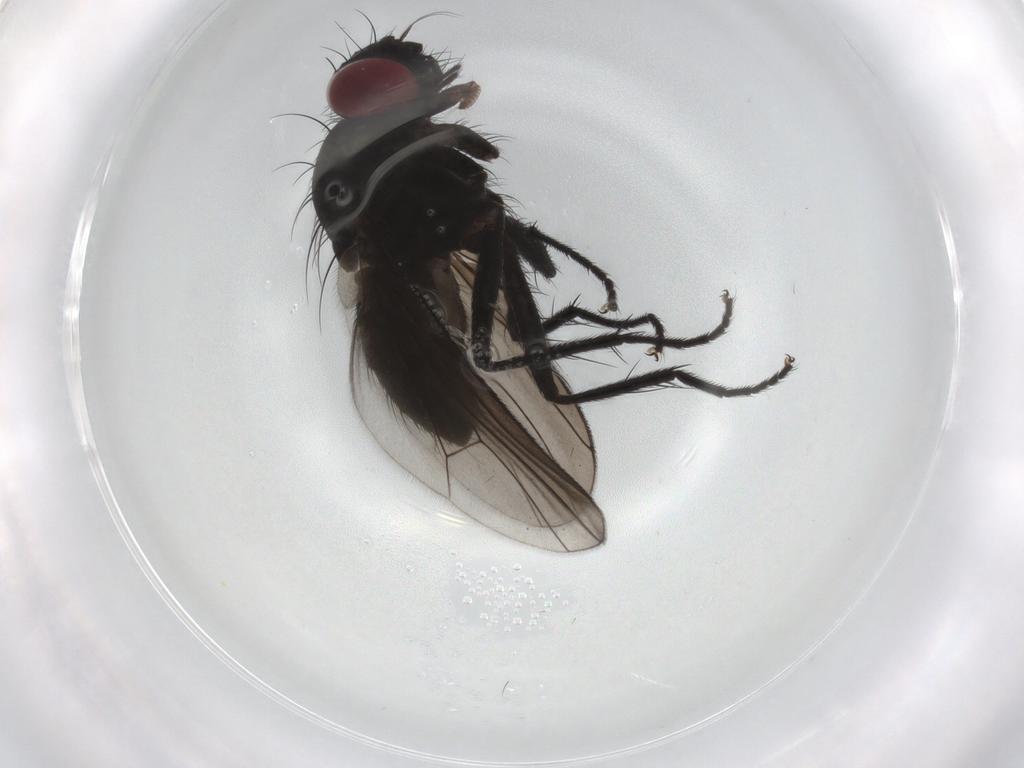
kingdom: Animalia
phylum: Arthropoda
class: Insecta
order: Diptera
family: Muscidae
